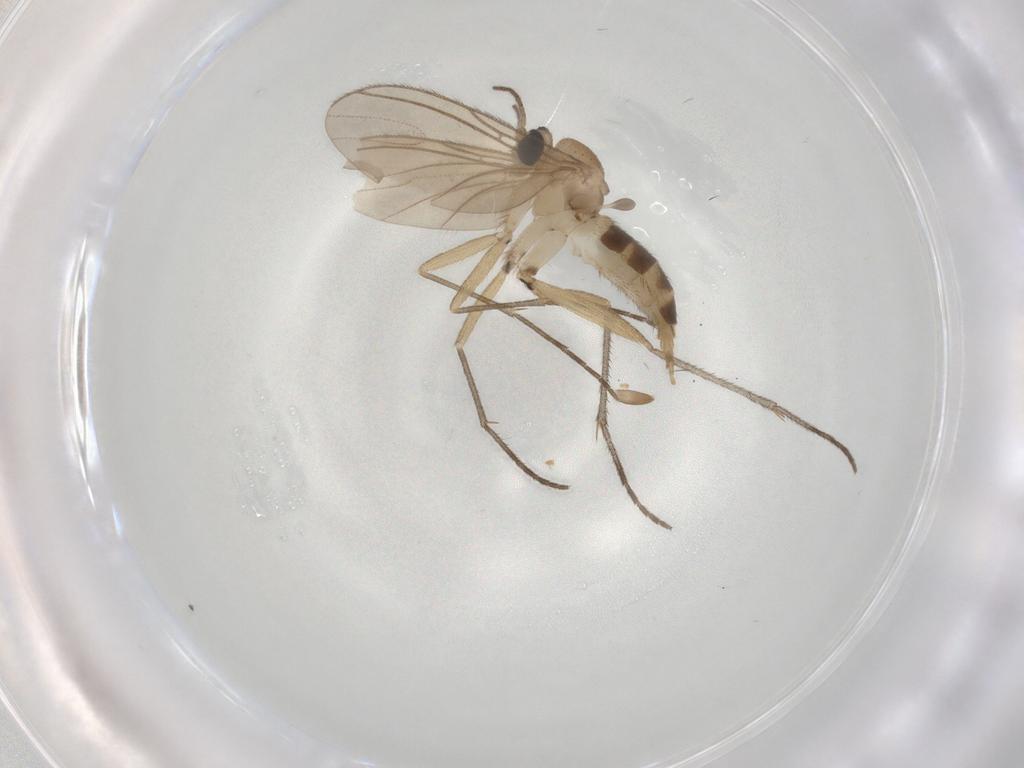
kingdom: Animalia
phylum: Arthropoda
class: Insecta
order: Diptera
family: Sciaridae
